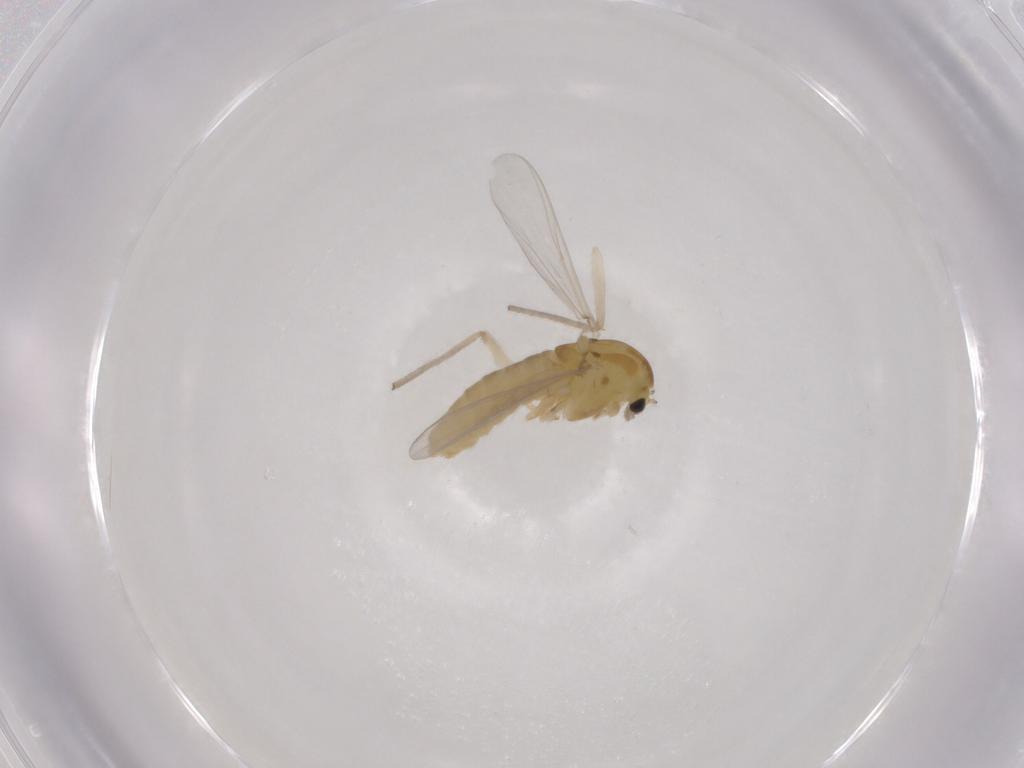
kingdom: Animalia
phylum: Arthropoda
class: Insecta
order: Diptera
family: Chironomidae
